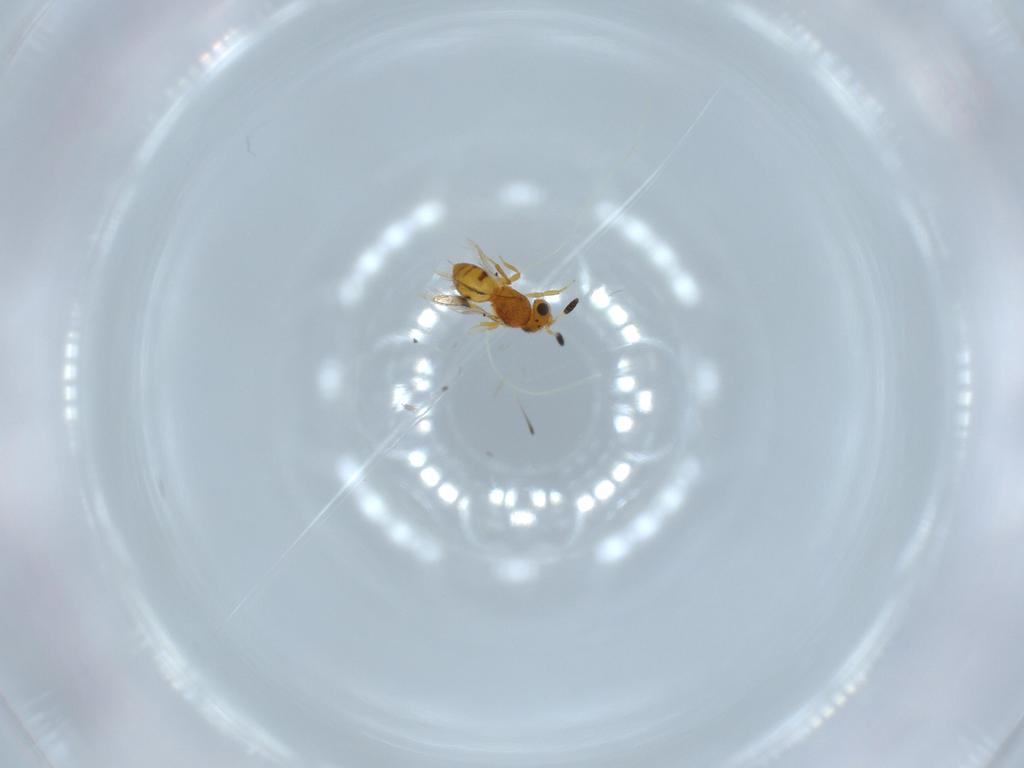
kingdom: Animalia
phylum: Arthropoda
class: Insecta
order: Hymenoptera
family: Scelionidae
